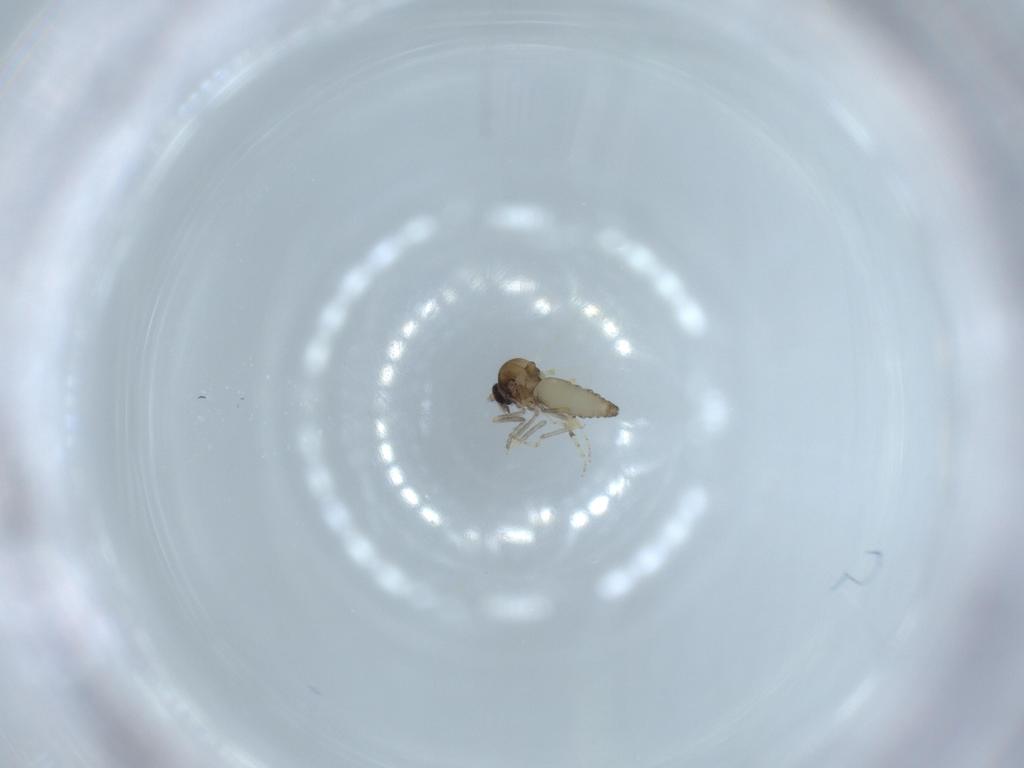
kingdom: Animalia
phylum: Arthropoda
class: Insecta
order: Diptera
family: Ceratopogonidae
